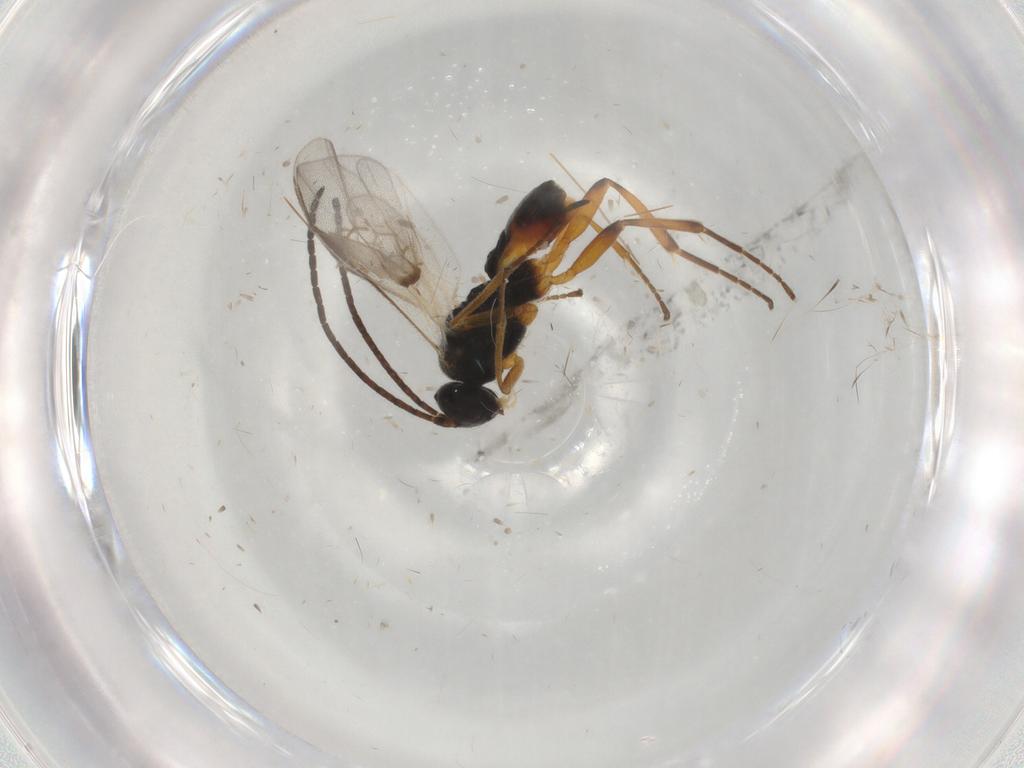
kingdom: Animalia
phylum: Arthropoda
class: Insecta
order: Hymenoptera
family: Braconidae
